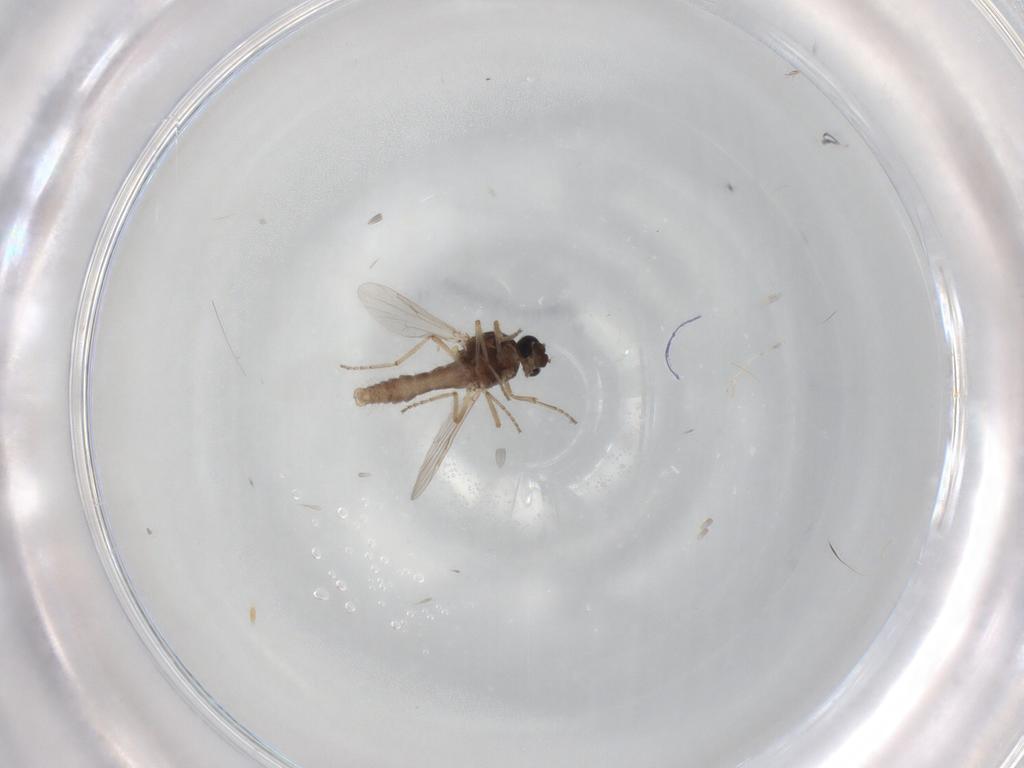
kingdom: Animalia
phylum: Arthropoda
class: Insecta
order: Diptera
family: Ceratopogonidae
